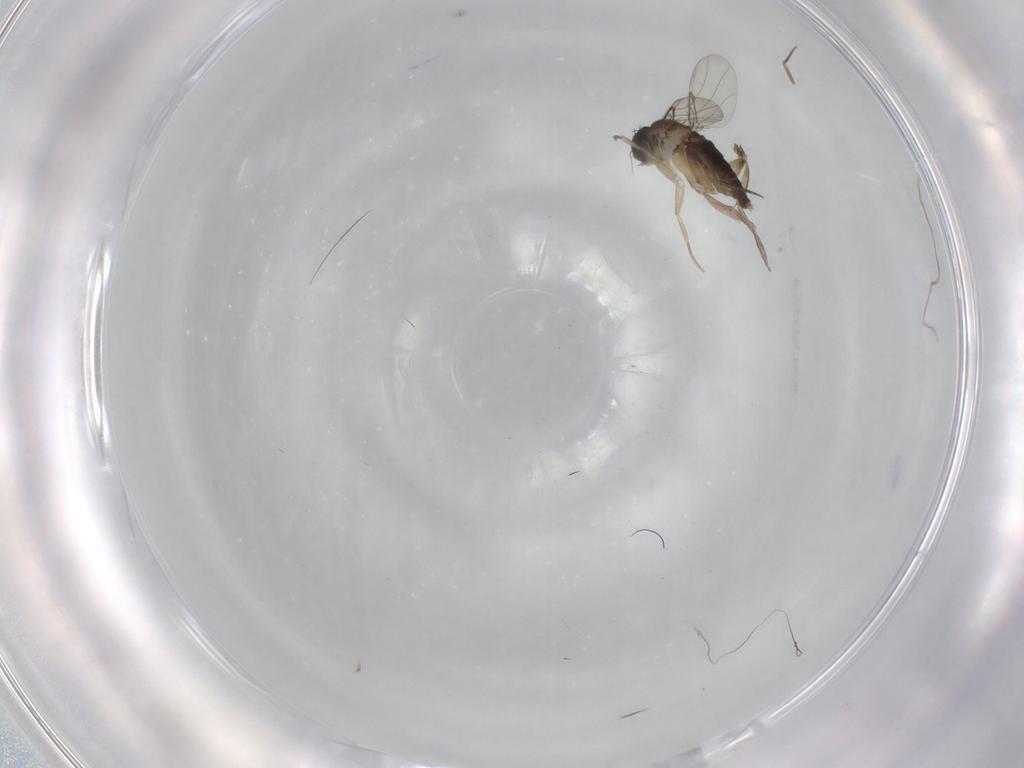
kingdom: Animalia
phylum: Arthropoda
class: Insecta
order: Diptera
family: Phoridae
